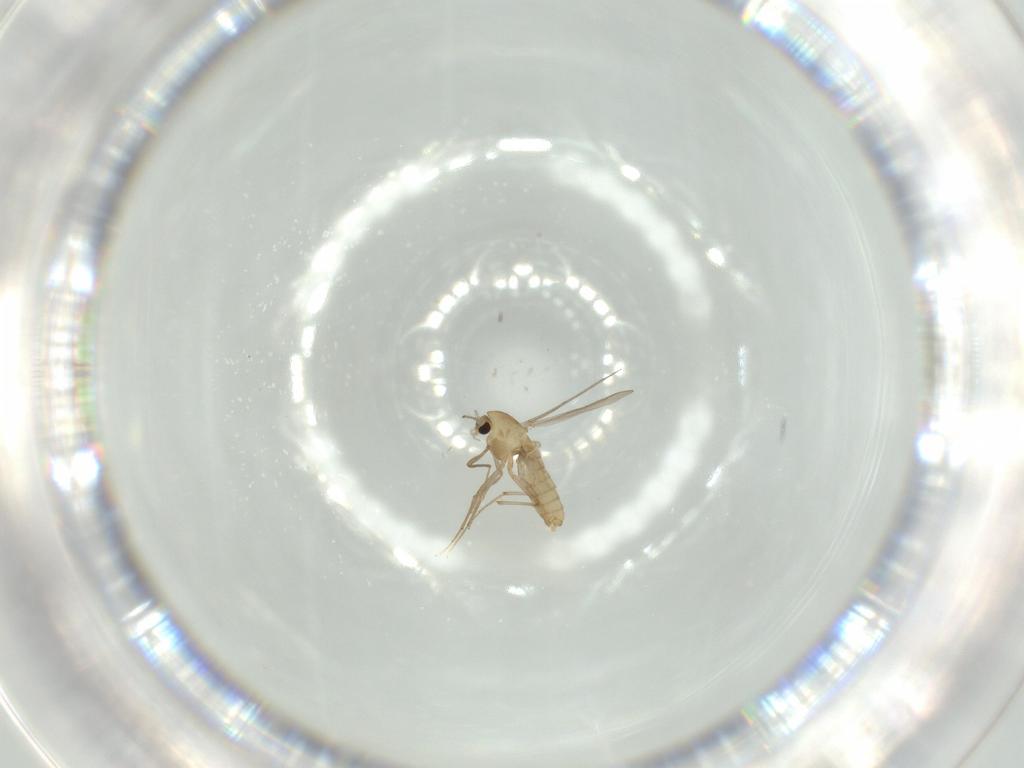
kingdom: Animalia
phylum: Arthropoda
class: Insecta
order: Diptera
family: Chironomidae
